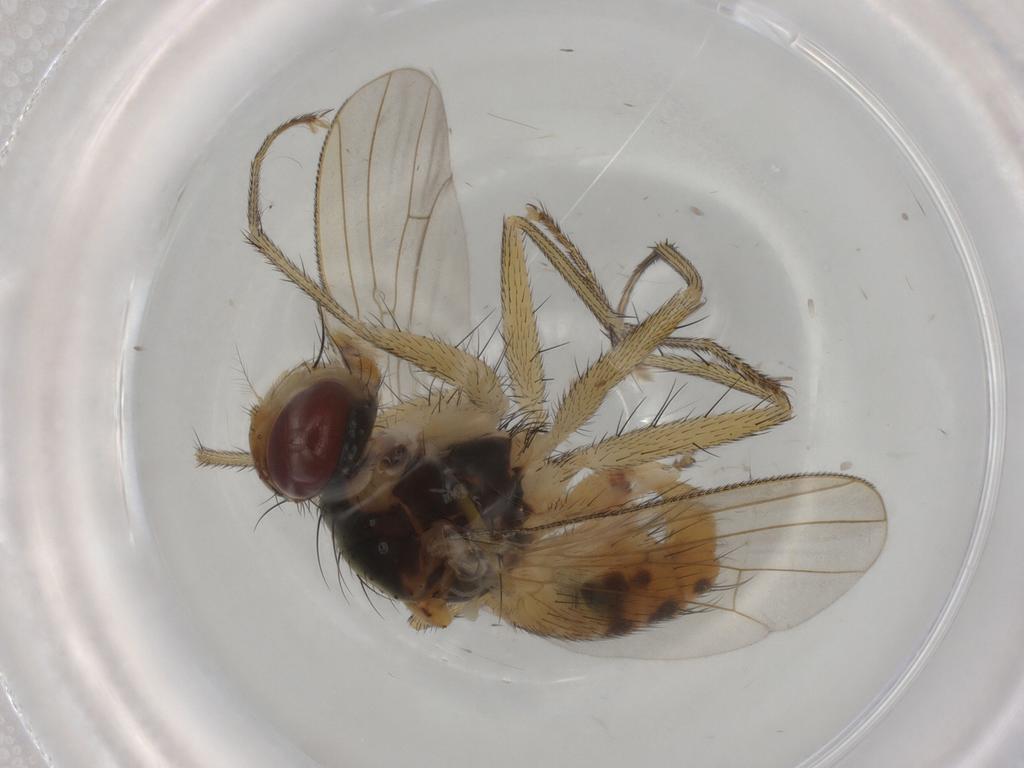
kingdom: Animalia
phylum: Arthropoda
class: Insecta
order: Diptera
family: Muscidae
